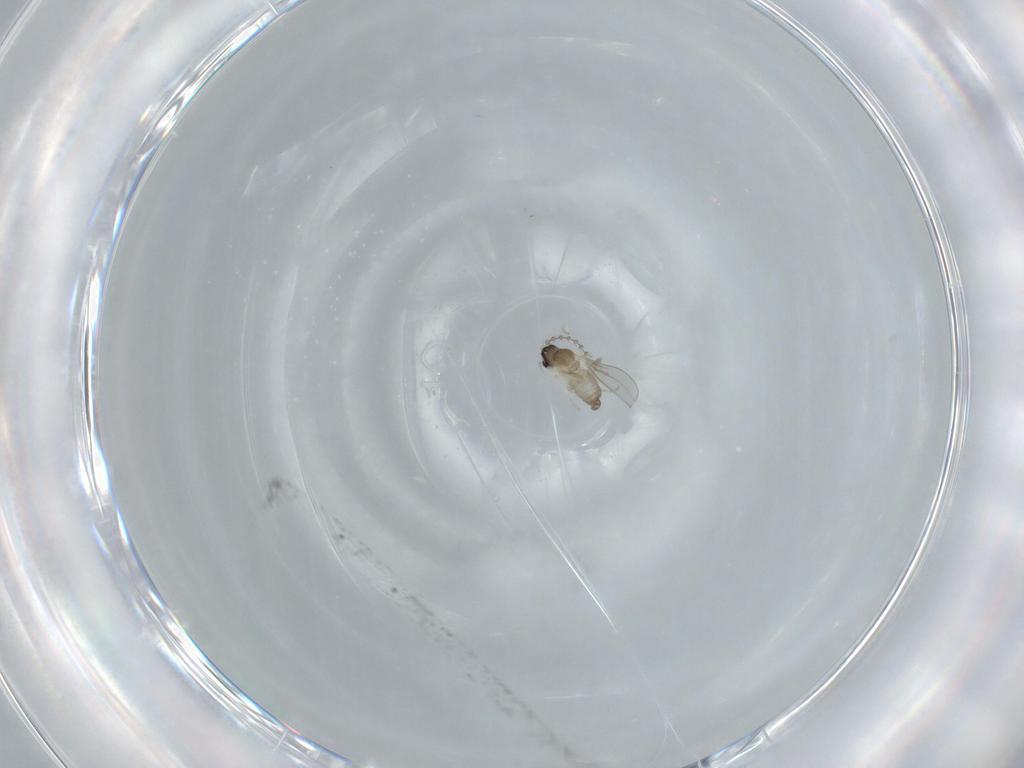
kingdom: Animalia
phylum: Arthropoda
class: Insecta
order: Diptera
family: Cecidomyiidae
